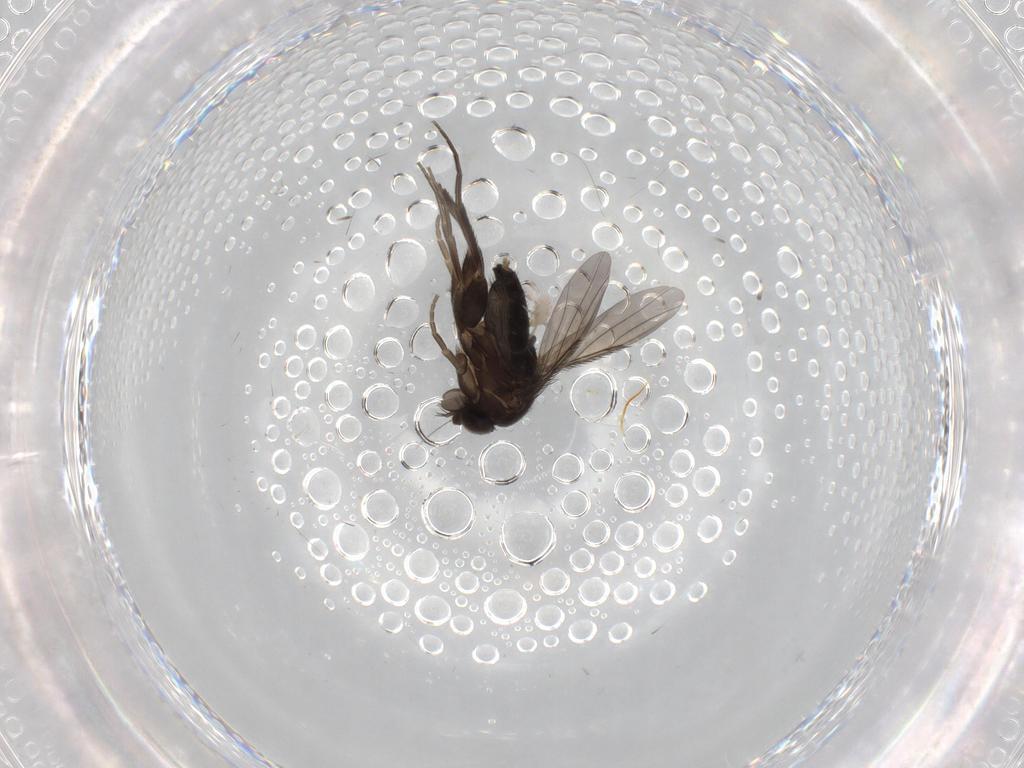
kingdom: Animalia
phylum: Arthropoda
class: Insecta
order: Diptera
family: Phoridae
